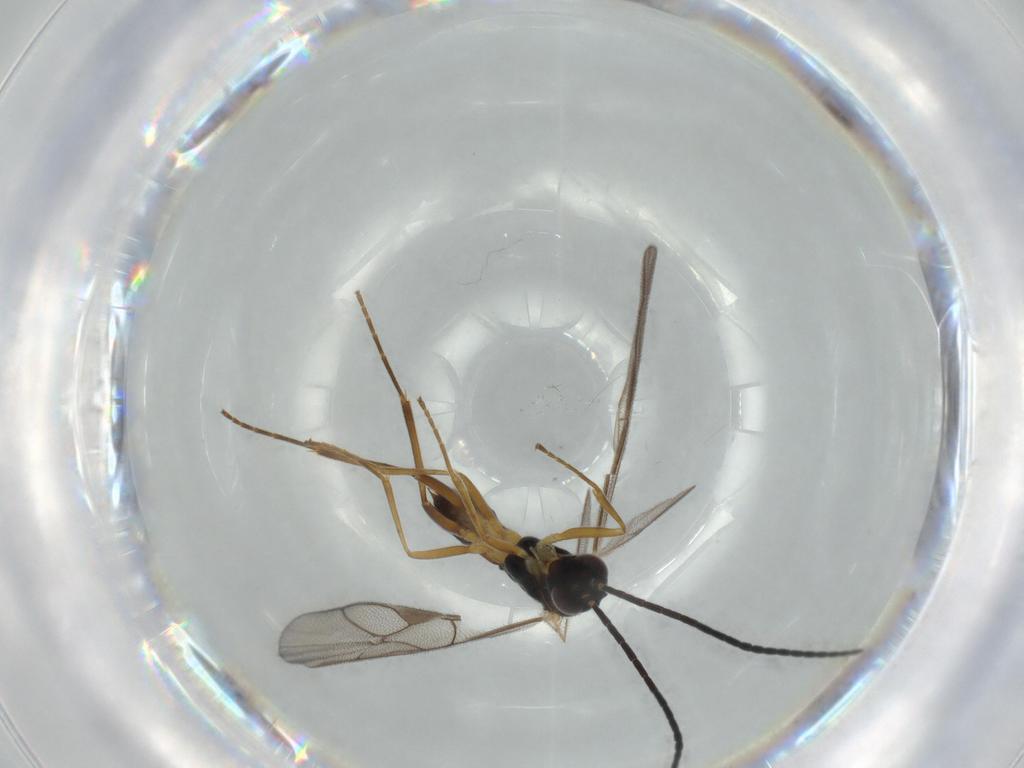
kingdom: Animalia
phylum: Arthropoda
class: Insecta
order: Hymenoptera
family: Ichneumonidae
